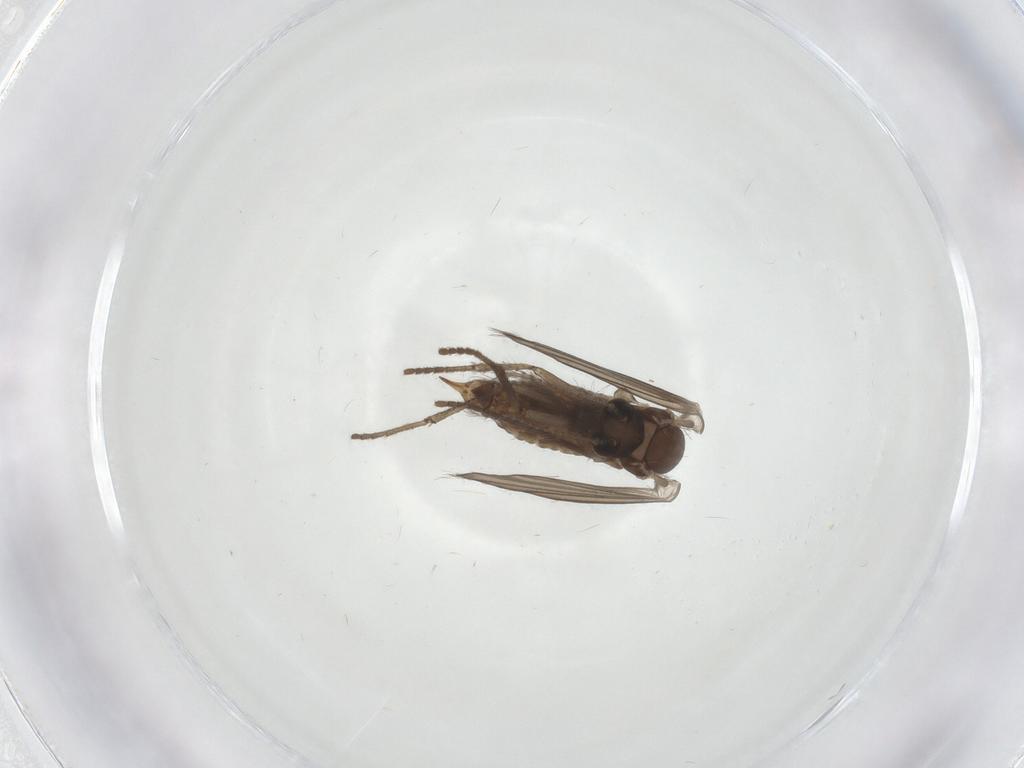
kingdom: Animalia
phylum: Arthropoda
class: Insecta
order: Diptera
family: Psychodidae
